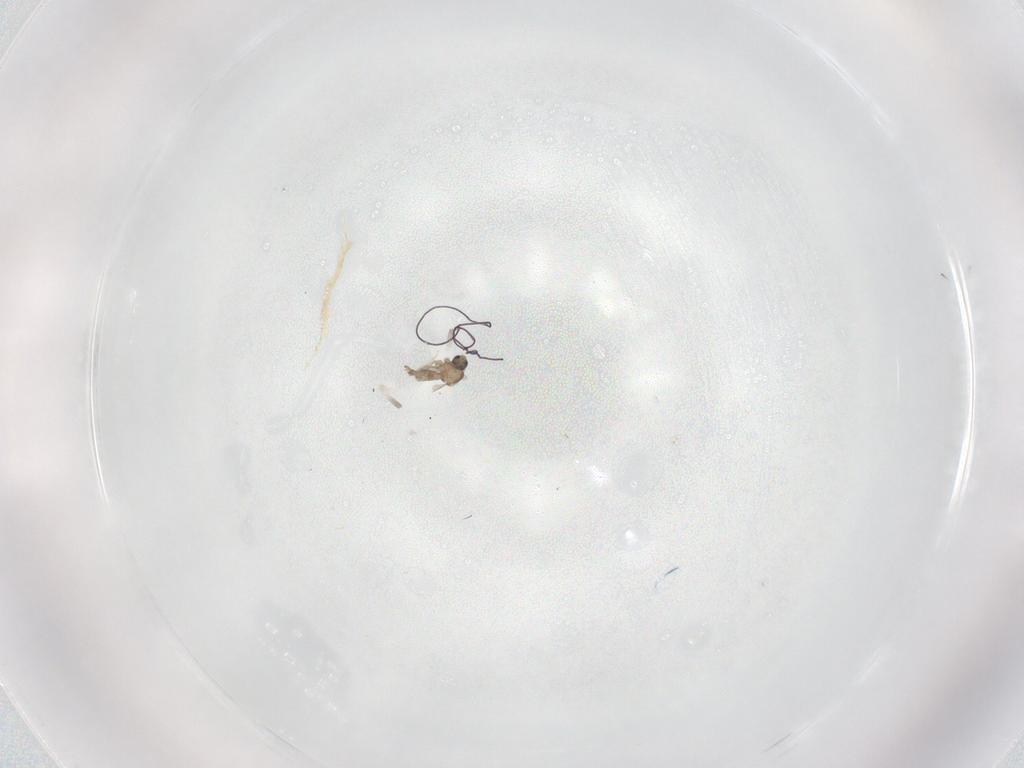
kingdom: Animalia
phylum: Arthropoda
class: Insecta
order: Diptera
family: Cecidomyiidae
